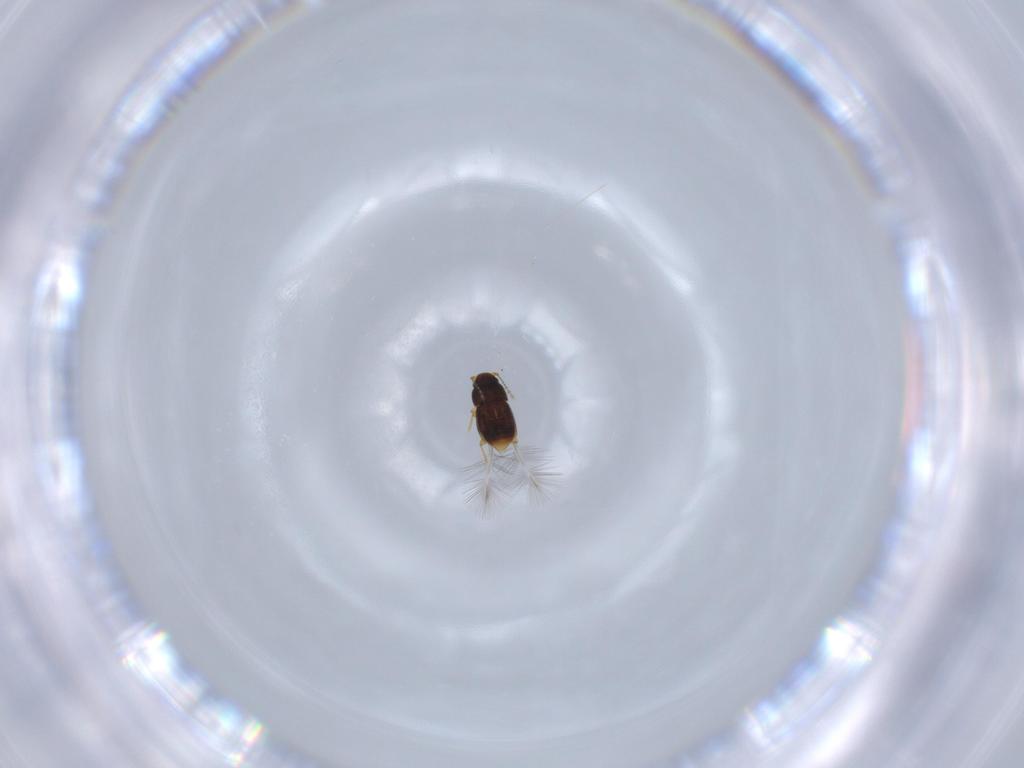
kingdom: Animalia
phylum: Arthropoda
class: Insecta
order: Coleoptera
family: Ptiliidae
